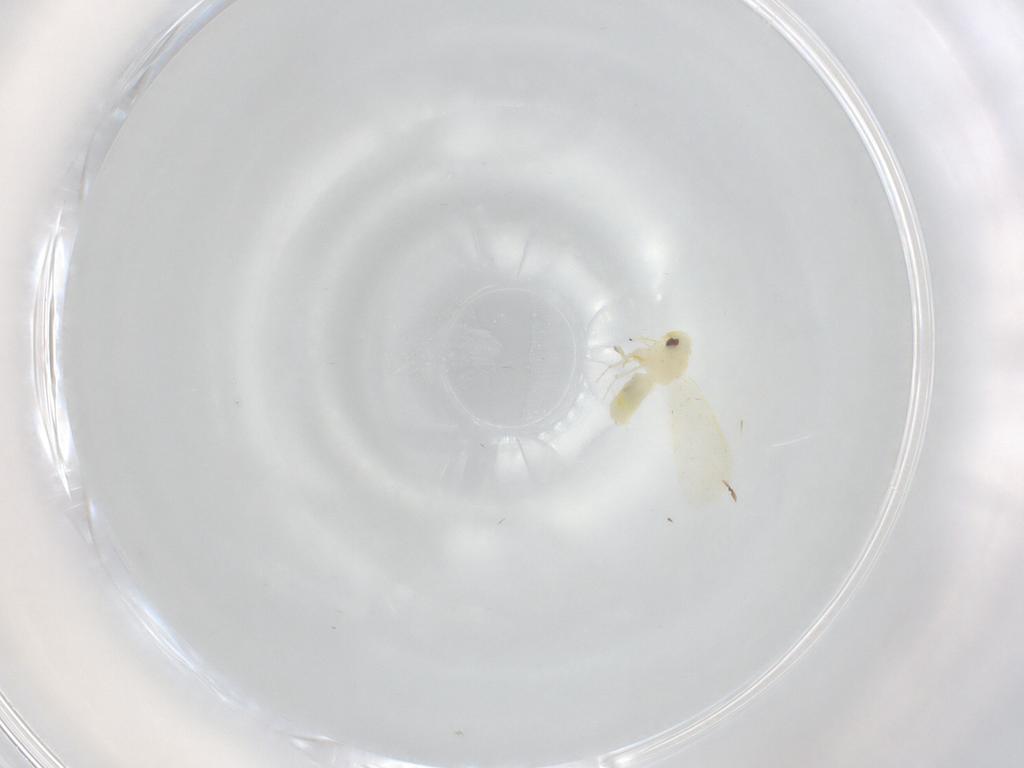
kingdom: Animalia
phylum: Arthropoda
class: Insecta
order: Hemiptera
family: Aleyrodidae
